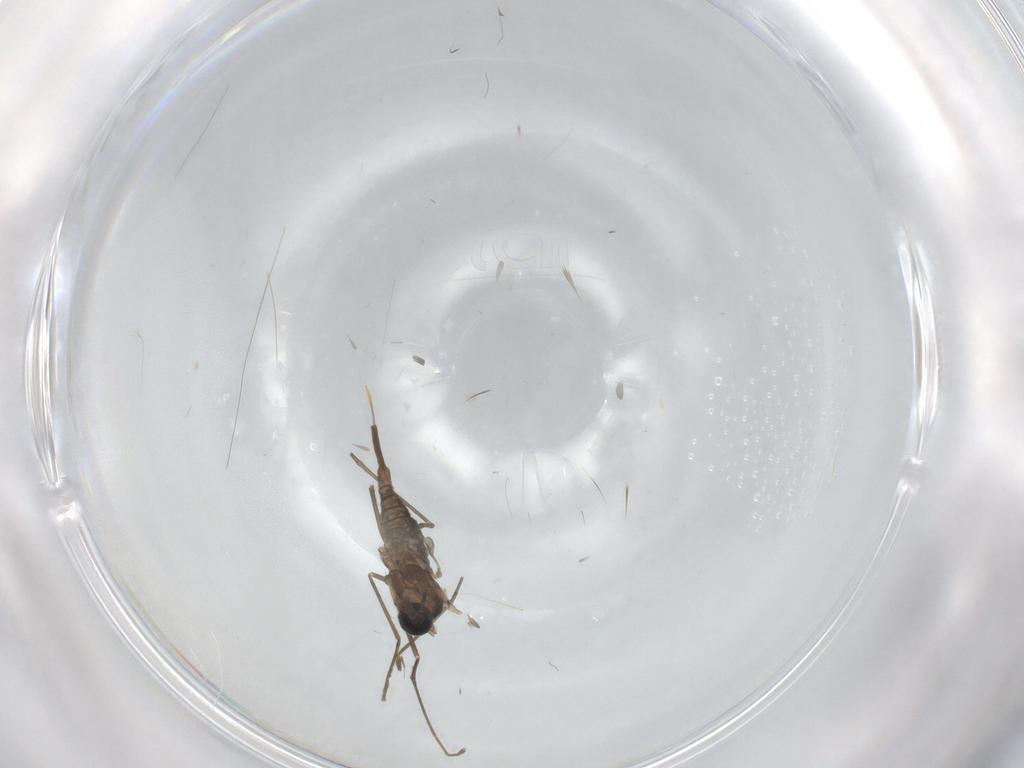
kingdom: Animalia
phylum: Arthropoda
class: Insecta
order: Diptera
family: Cecidomyiidae
